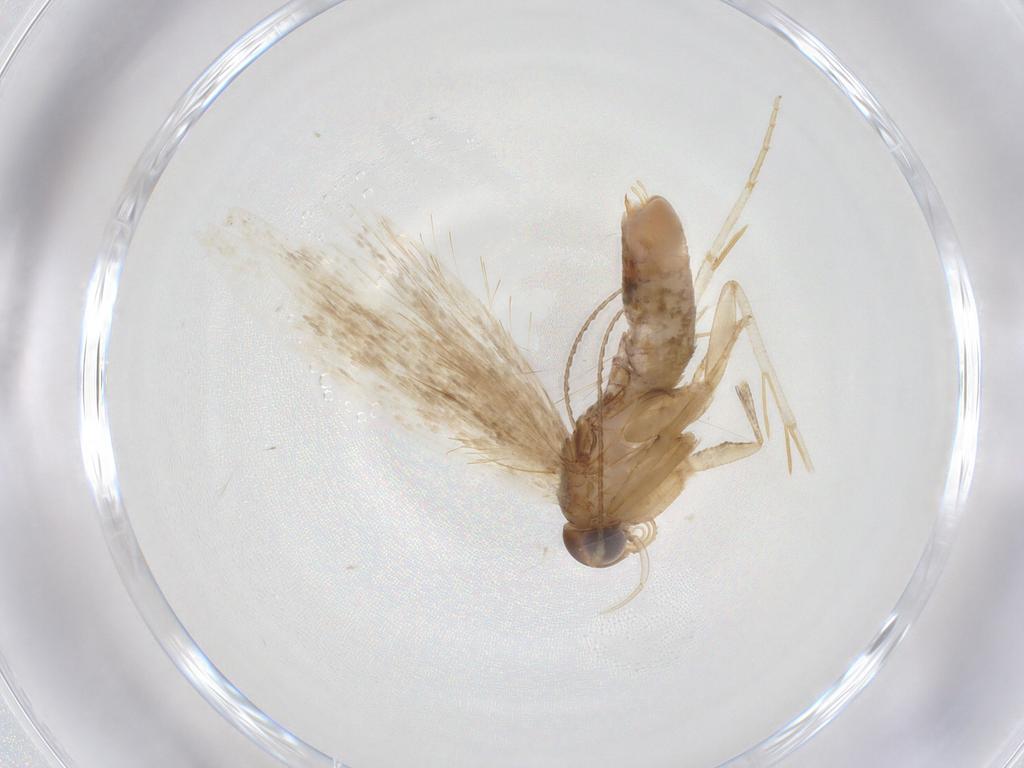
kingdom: Animalia
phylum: Arthropoda
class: Insecta
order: Lepidoptera
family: Gelechiidae
